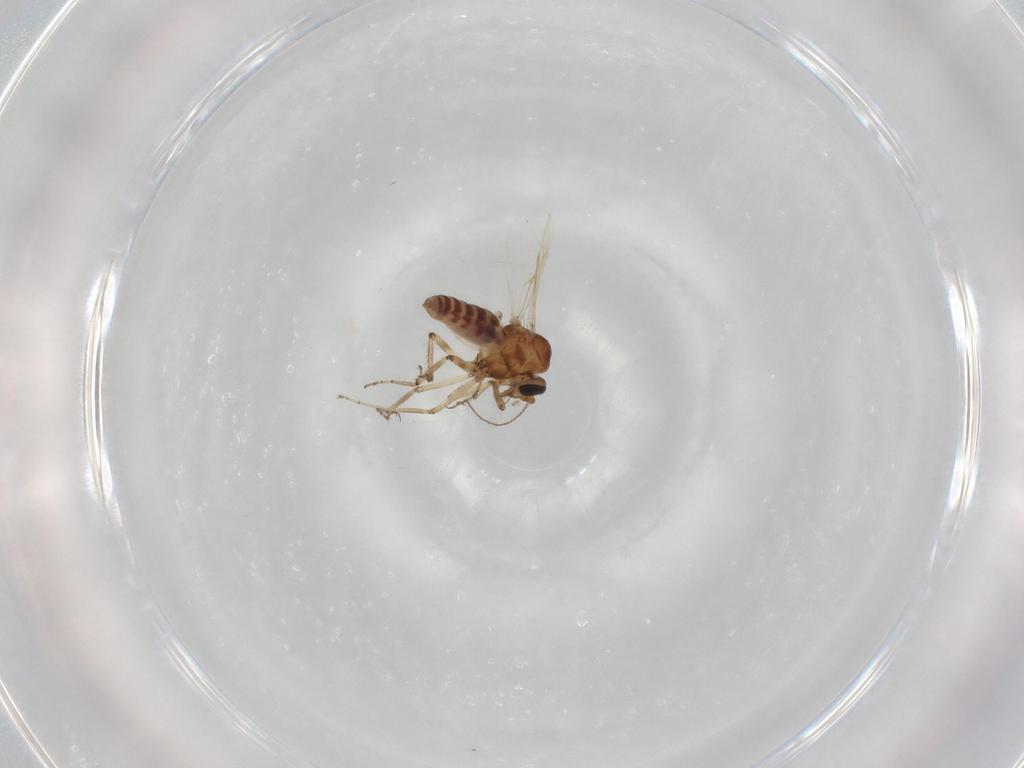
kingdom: Animalia
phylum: Arthropoda
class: Insecta
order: Diptera
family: Ceratopogonidae
